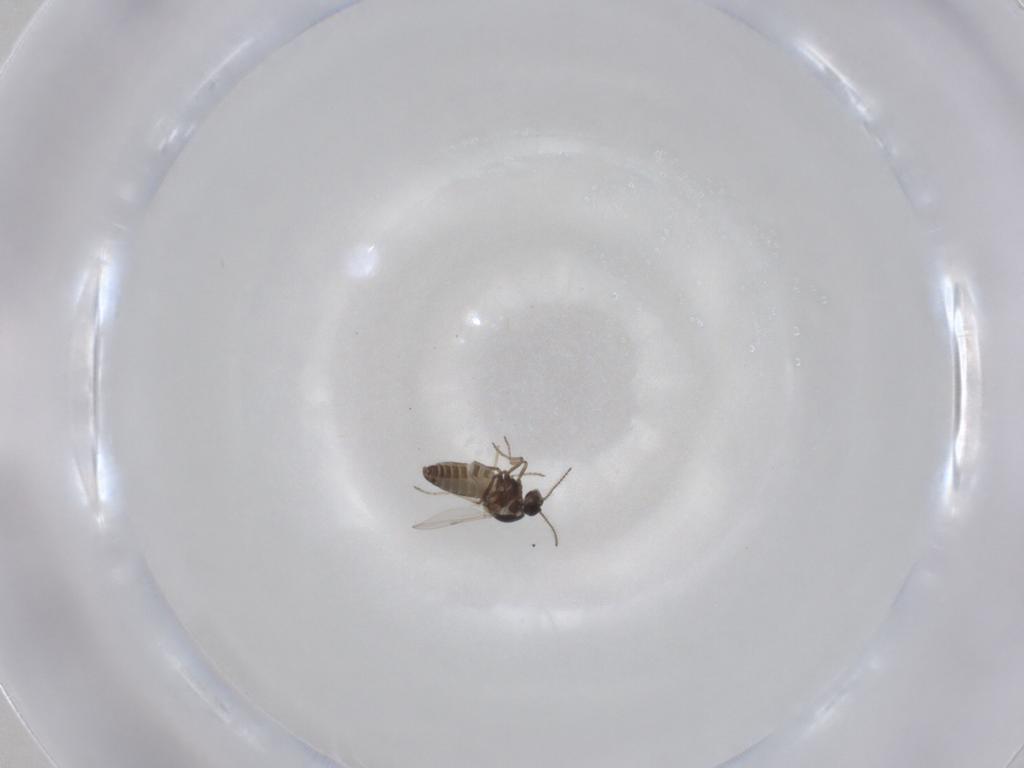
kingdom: Animalia
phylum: Arthropoda
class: Insecta
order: Diptera
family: Ceratopogonidae
